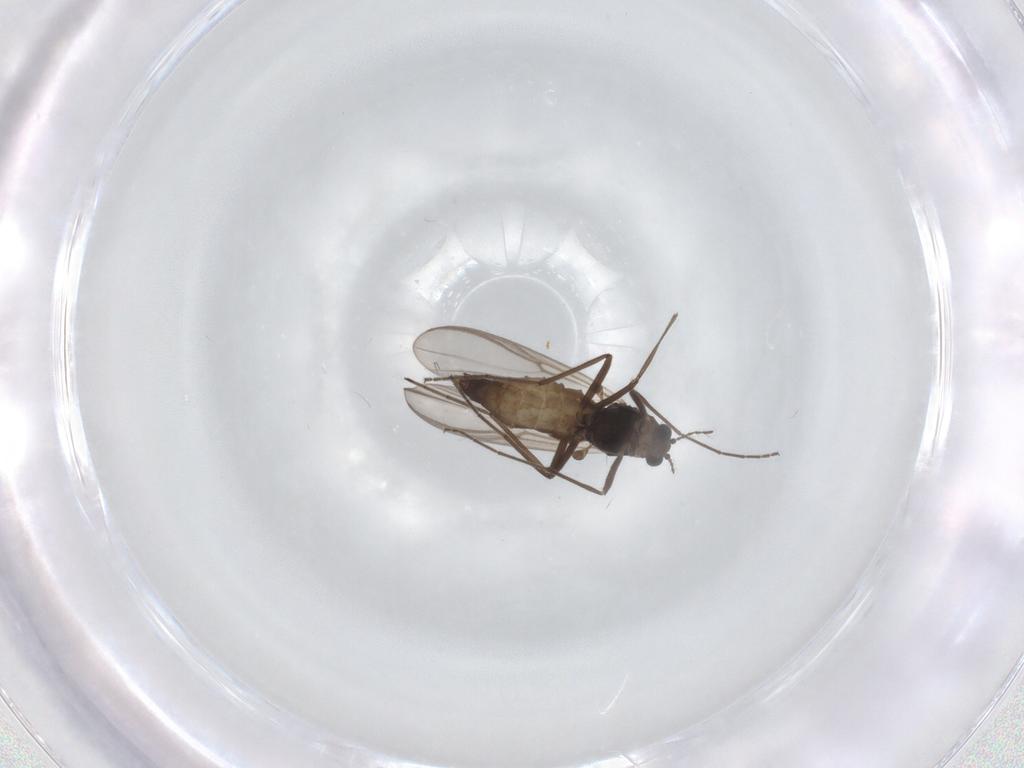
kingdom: Animalia
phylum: Arthropoda
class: Insecta
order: Diptera
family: Chironomidae
